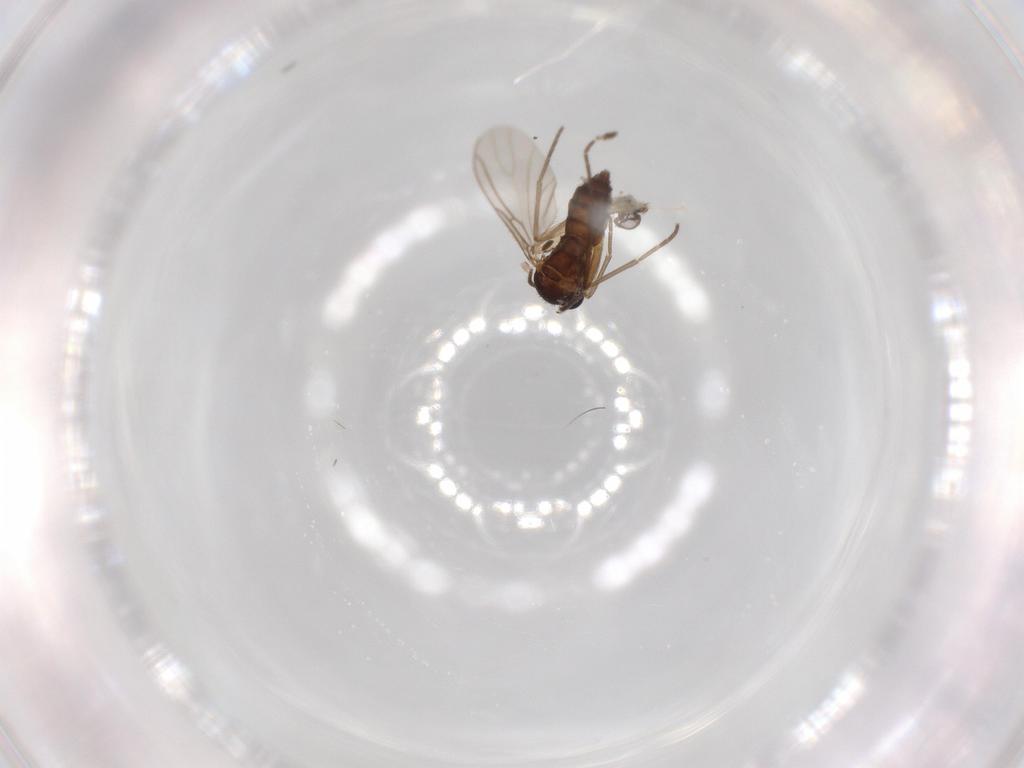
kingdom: Animalia
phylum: Arthropoda
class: Insecta
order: Diptera
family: Sciaridae
